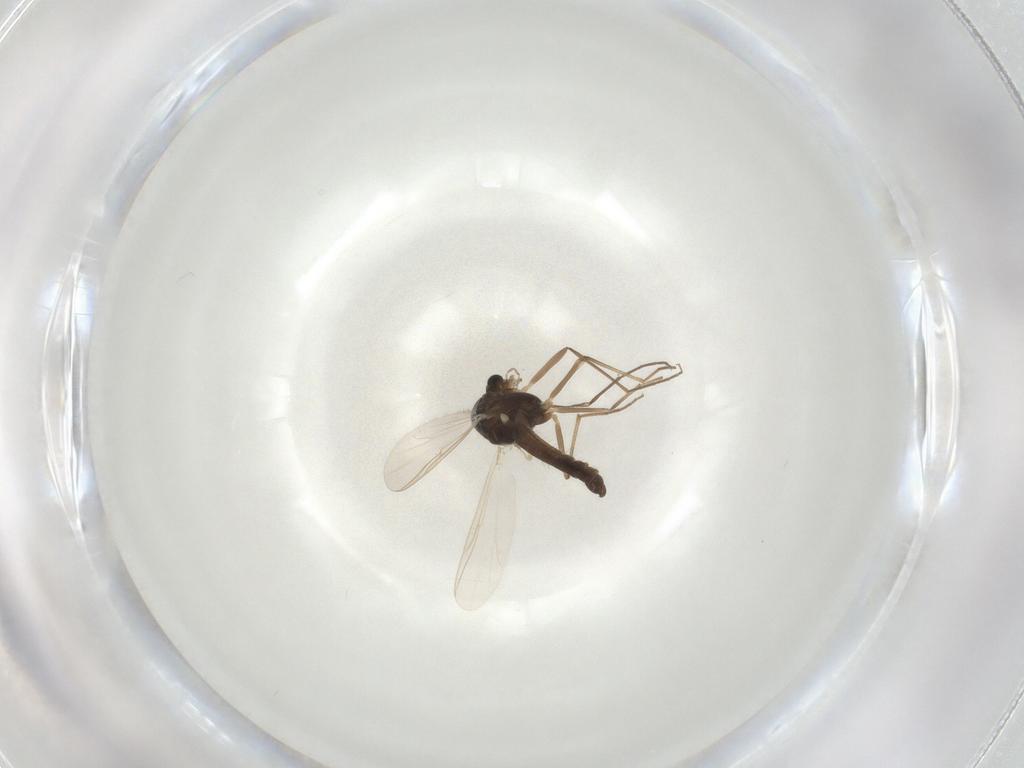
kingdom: Animalia
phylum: Arthropoda
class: Insecta
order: Diptera
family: Chironomidae
